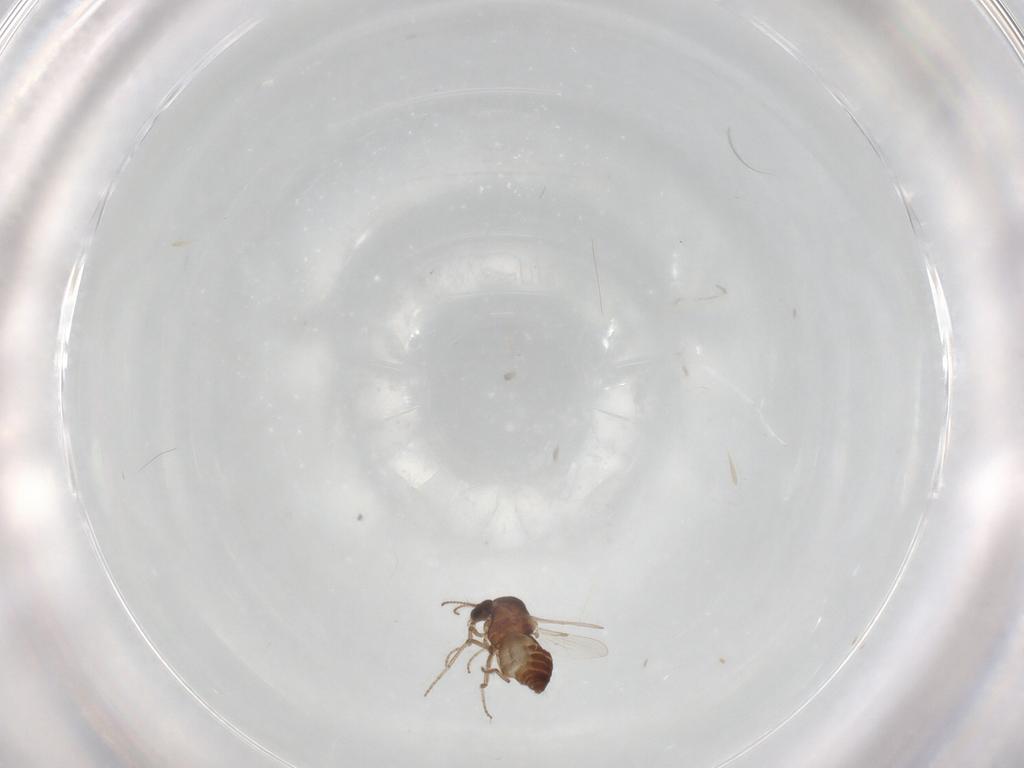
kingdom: Animalia
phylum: Arthropoda
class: Insecta
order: Diptera
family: Ceratopogonidae
